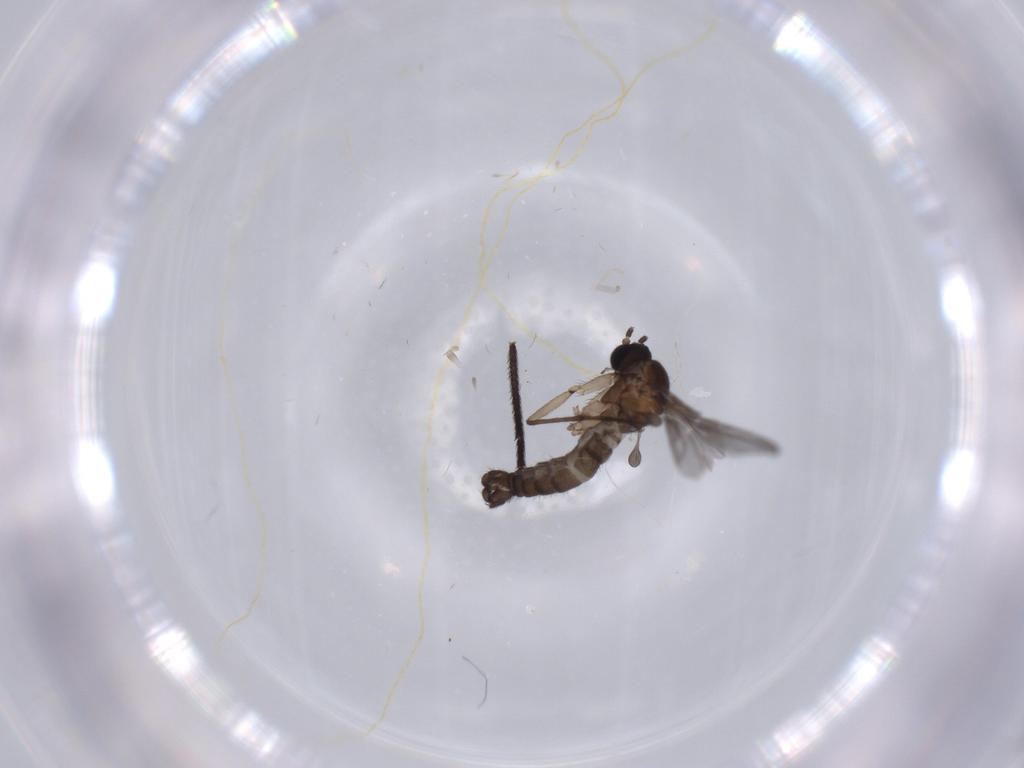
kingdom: Animalia
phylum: Arthropoda
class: Insecta
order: Diptera
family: Sciaridae
